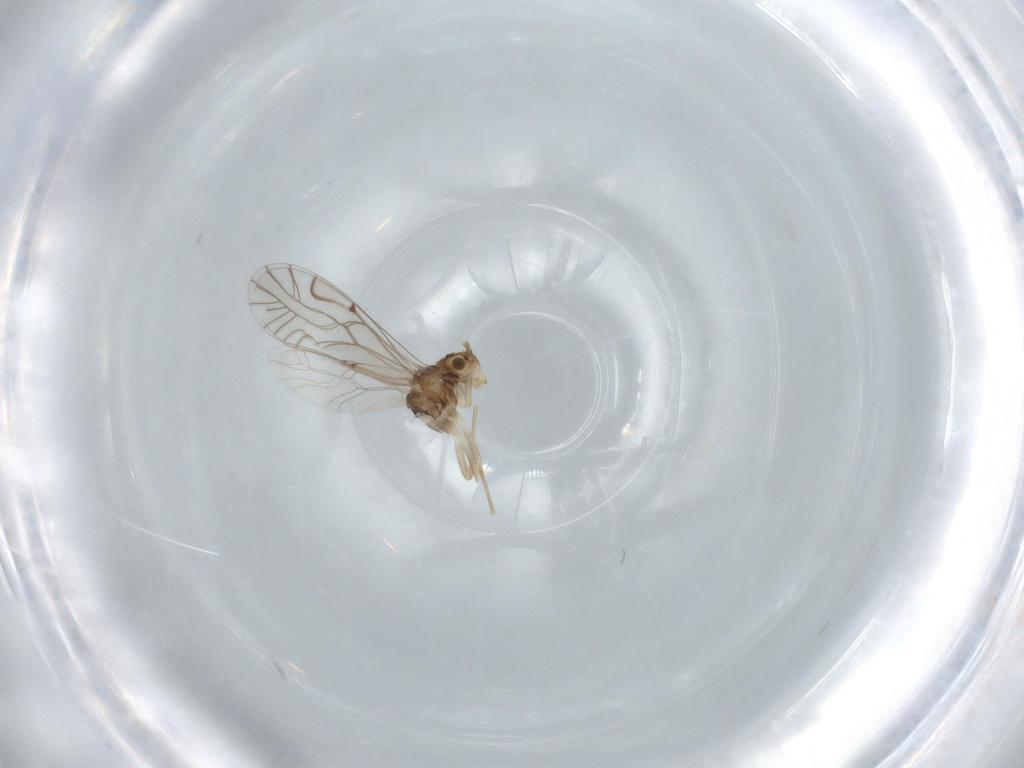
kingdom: Animalia
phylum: Arthropoda
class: Insecta
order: Psocodea
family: Lachesillidae
